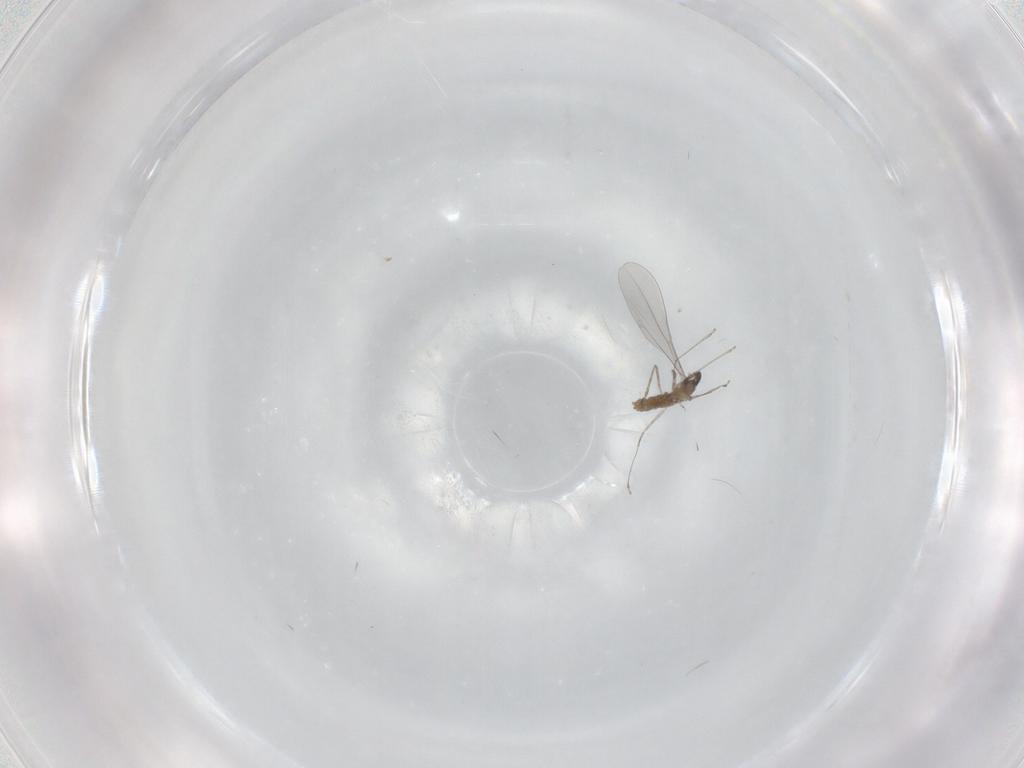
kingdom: Animalia
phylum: Arthropoda
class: Insecta
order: Diptera
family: Cecidomyiidae
